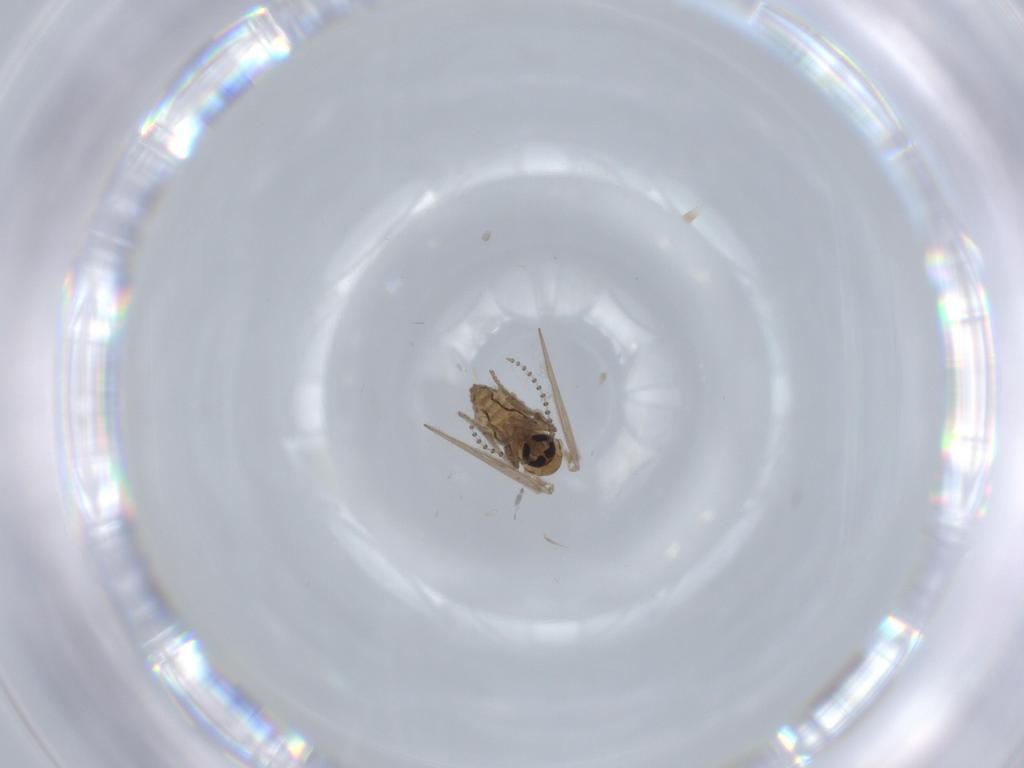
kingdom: Animalia
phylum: Arthropoda
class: Insecta
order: Diptera
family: Psychodidae
